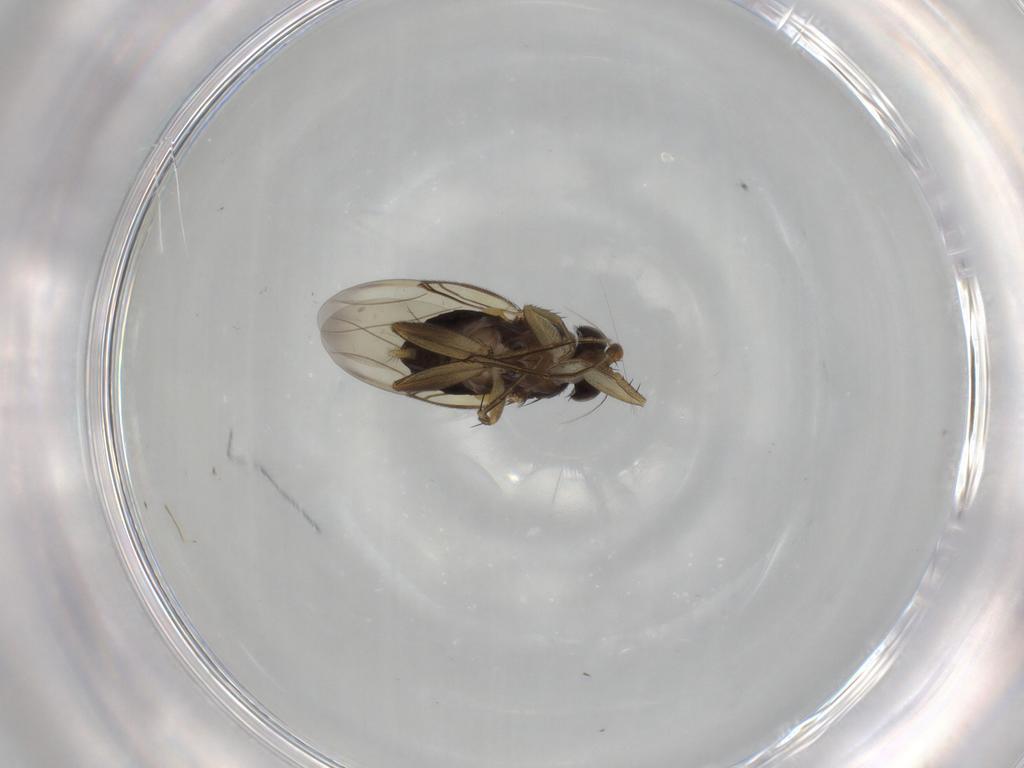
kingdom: Animalia
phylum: Arthropoda
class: Insecta
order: Diptera
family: Phoridae
